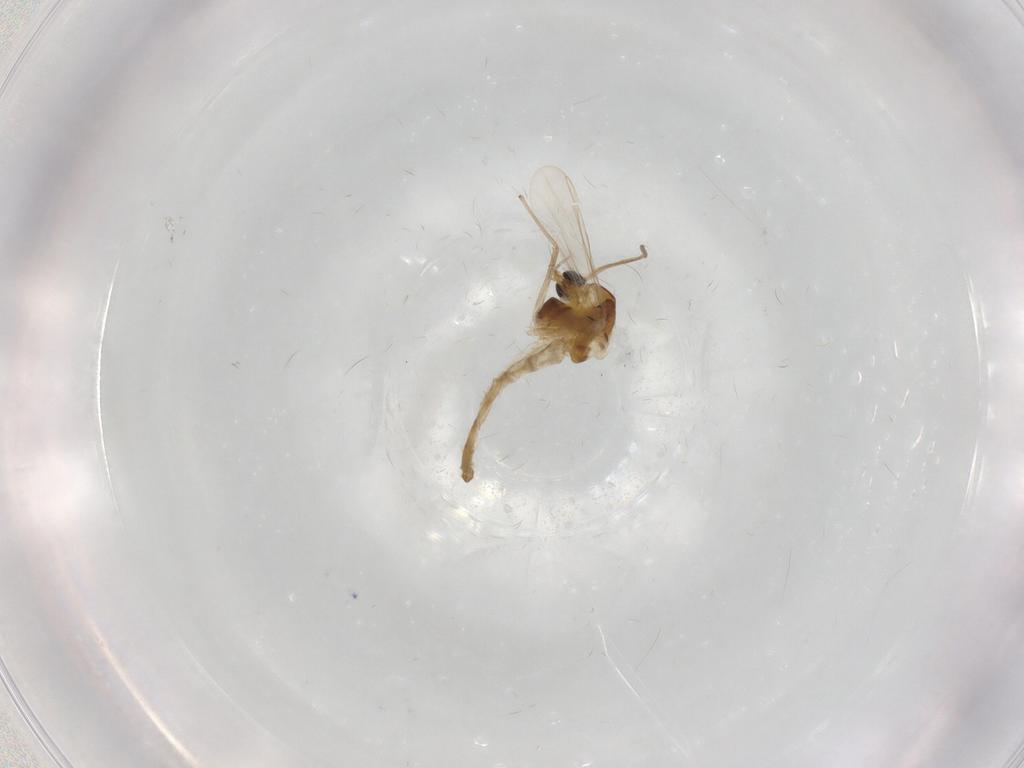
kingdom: Animalia
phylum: Arthropoda
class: Insecta
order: Diptera
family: Chironomidae
